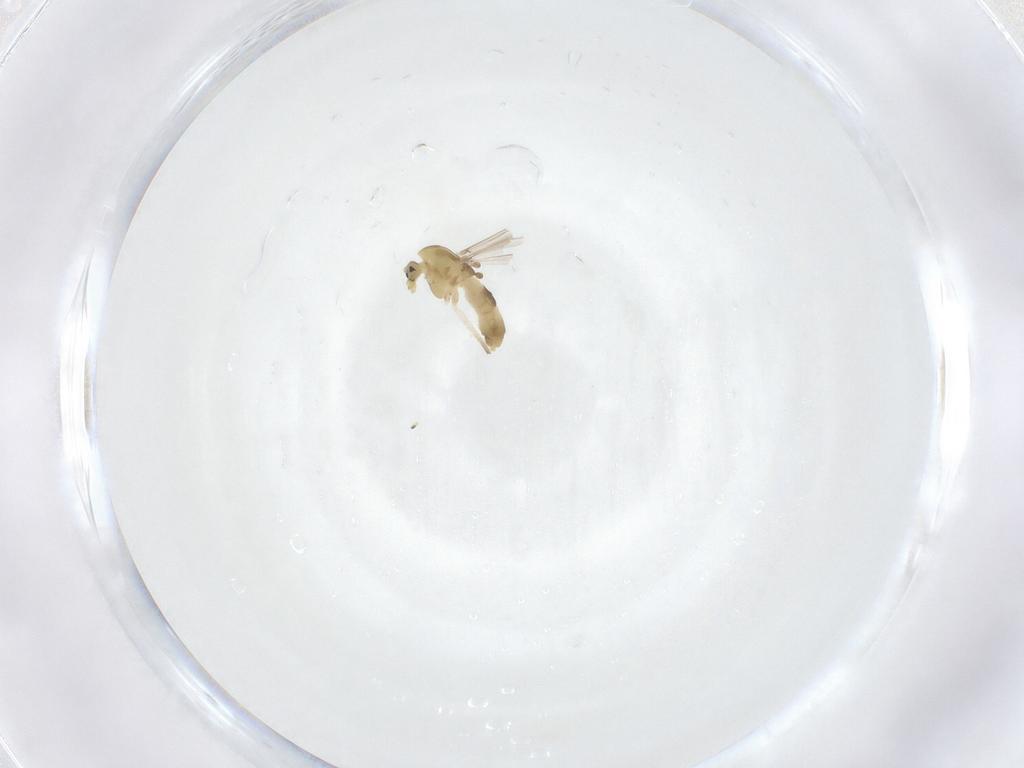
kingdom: Animalia
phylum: Arthropoda
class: Insecta
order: Diptera
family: Chironomidae
